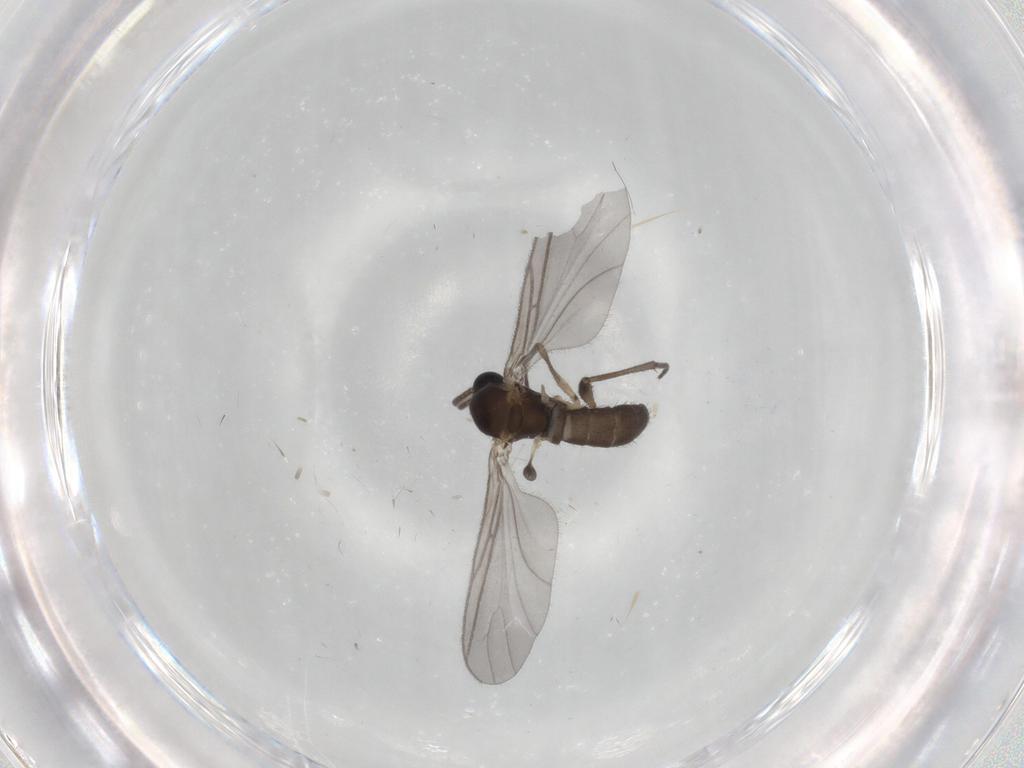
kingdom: Animalia
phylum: Arthropoda
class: Insecta
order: Diptera
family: Sciaridae
